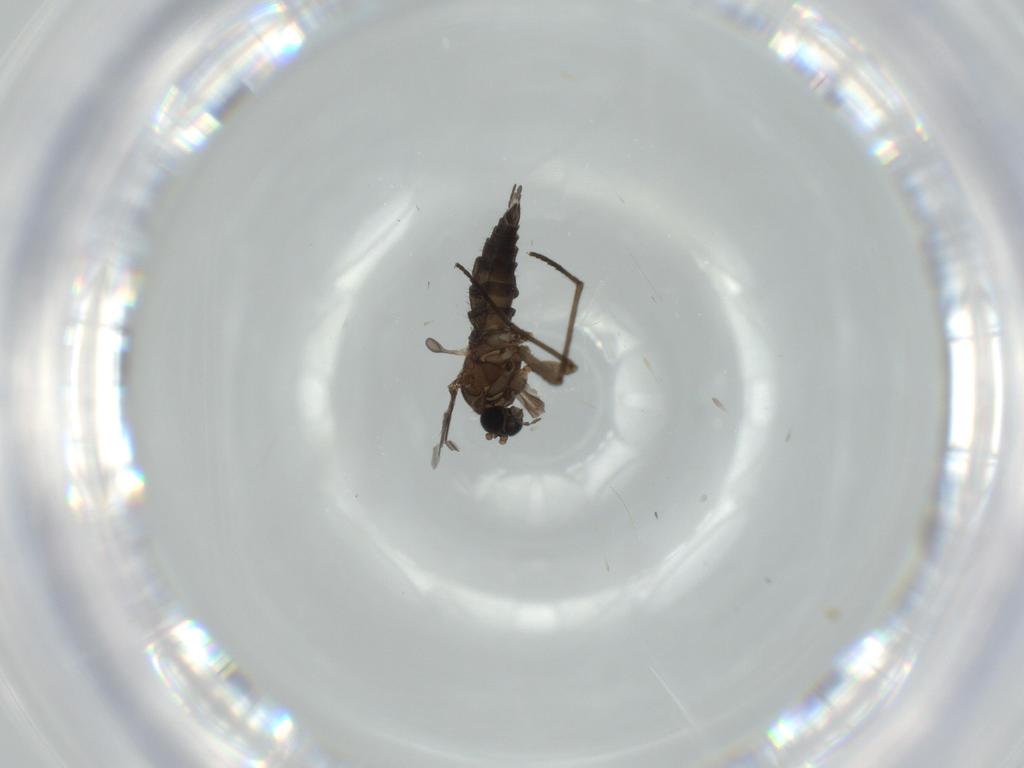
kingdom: Animalia
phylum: Arthropoda
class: Insecta
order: Diptera
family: Sciaridae
